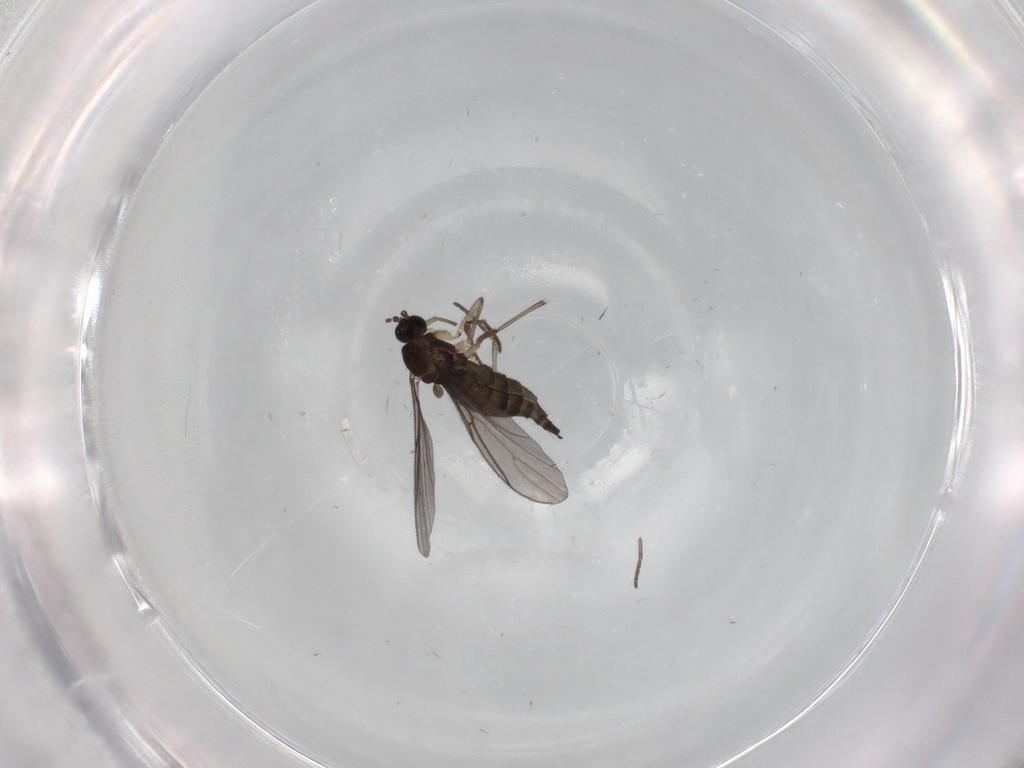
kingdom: Animalia
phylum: Arthropoda
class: Insecta
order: Diptera
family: Sciaridae
